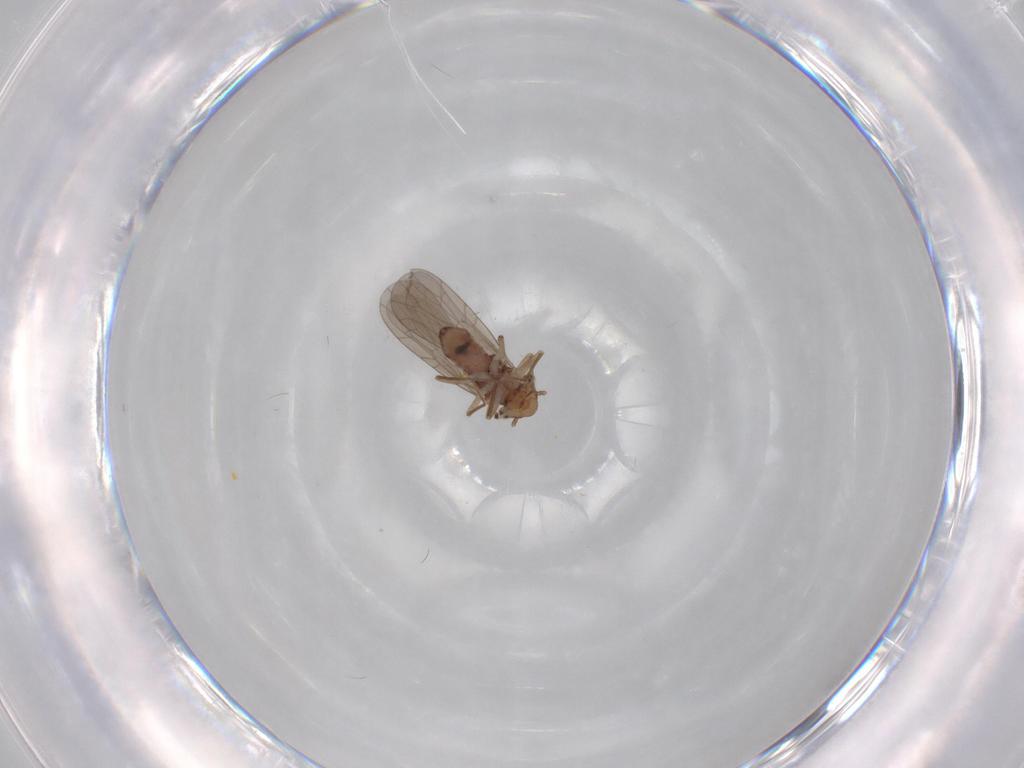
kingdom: Animalia
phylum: Arthropoda
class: Insecta
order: Psocodea
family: Lepidopsocidae
